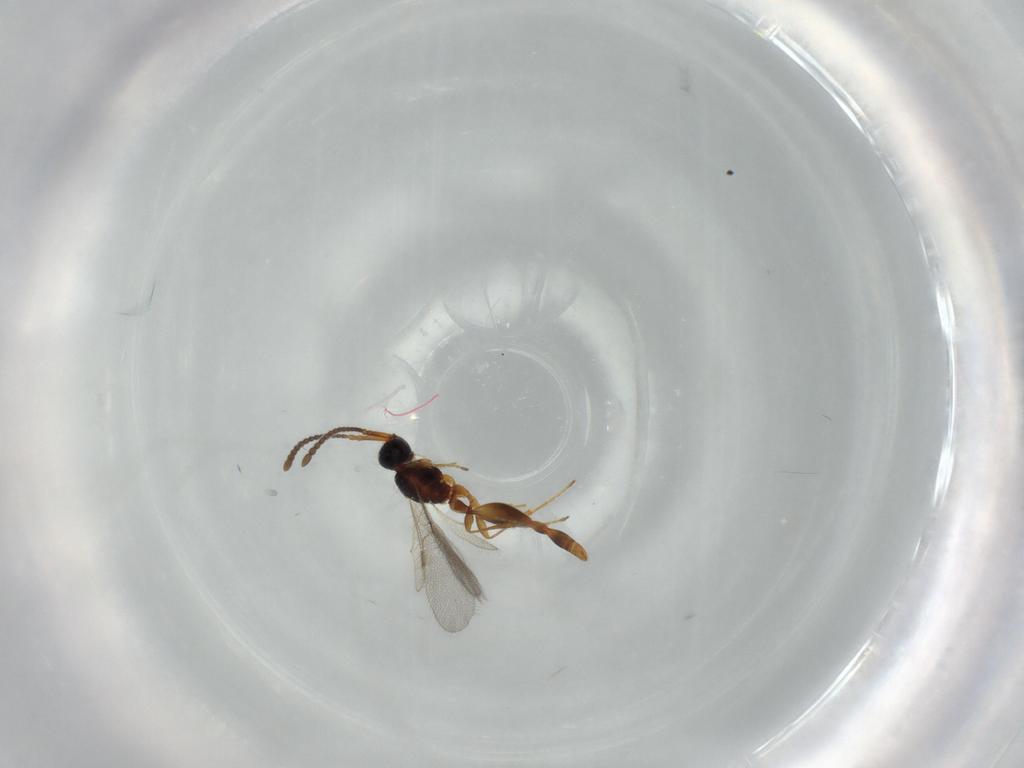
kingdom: Animalia
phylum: Arthropoda
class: Insecta
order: Hymenoptera
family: Diapriidae
